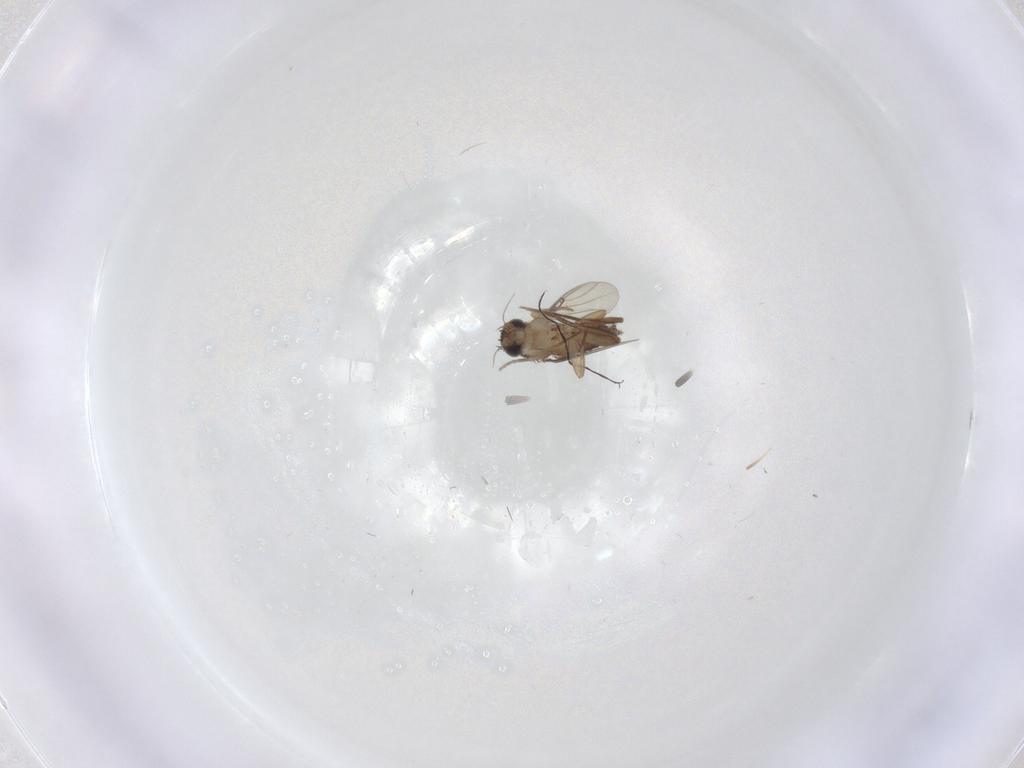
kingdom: Animalia
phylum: Arthropoda
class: Insecta
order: Diptera
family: Phoridae
